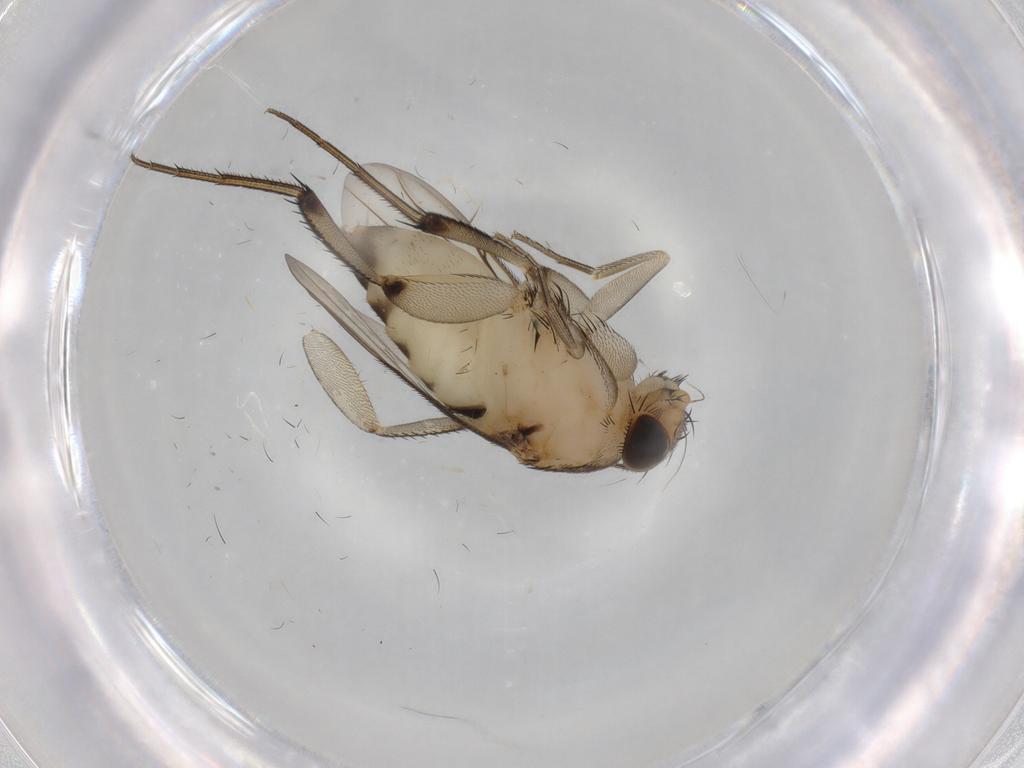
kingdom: Animalia
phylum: Arthropoda
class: Insecta
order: Diptera
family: Phoridae
